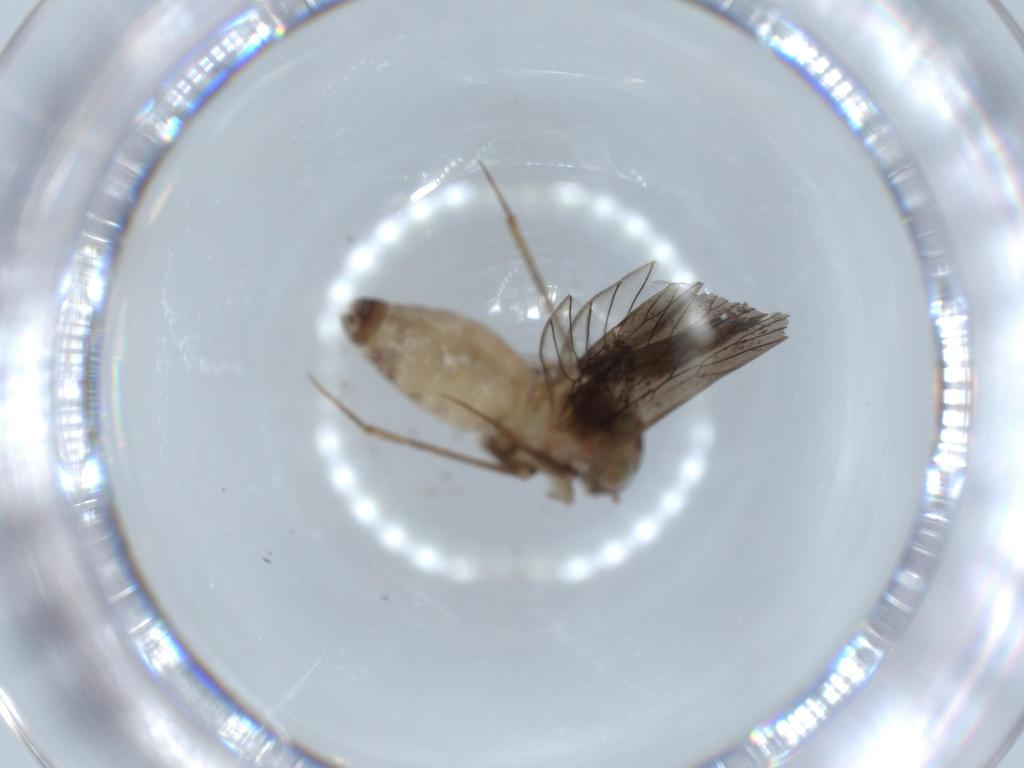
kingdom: Animalia
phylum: Arthropoda
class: Insecta
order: Psocodea
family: Lepidopsocidae
